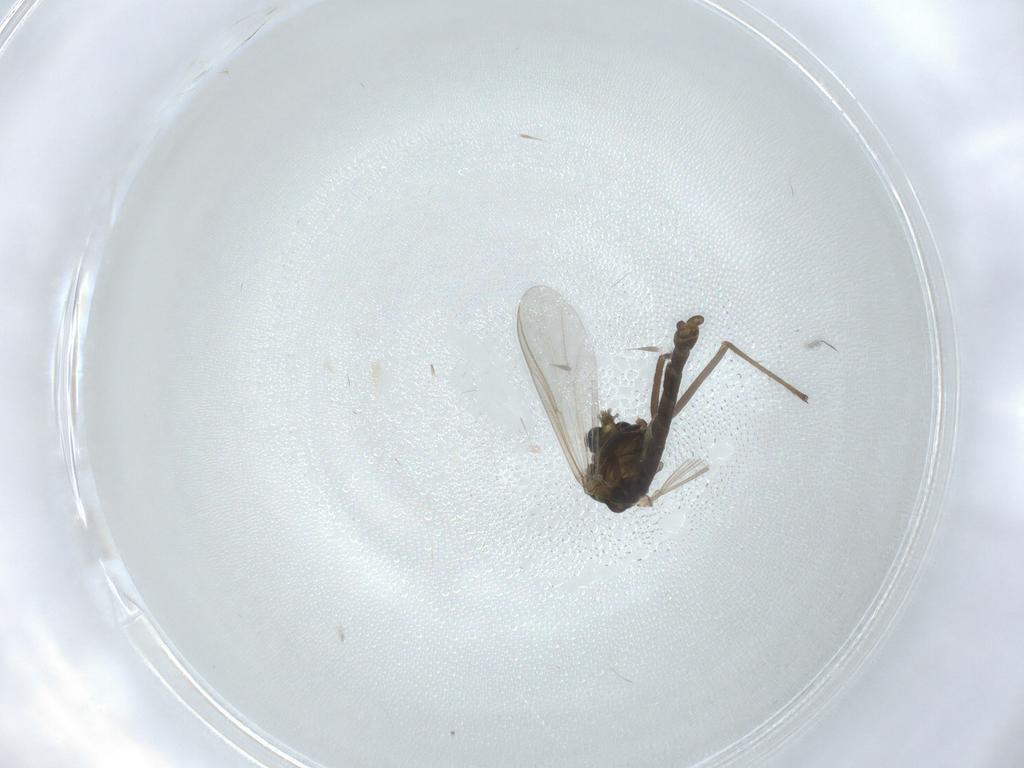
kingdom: Animalia
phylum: Arthropoda
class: Insecta
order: Diptera
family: Chironomidae
